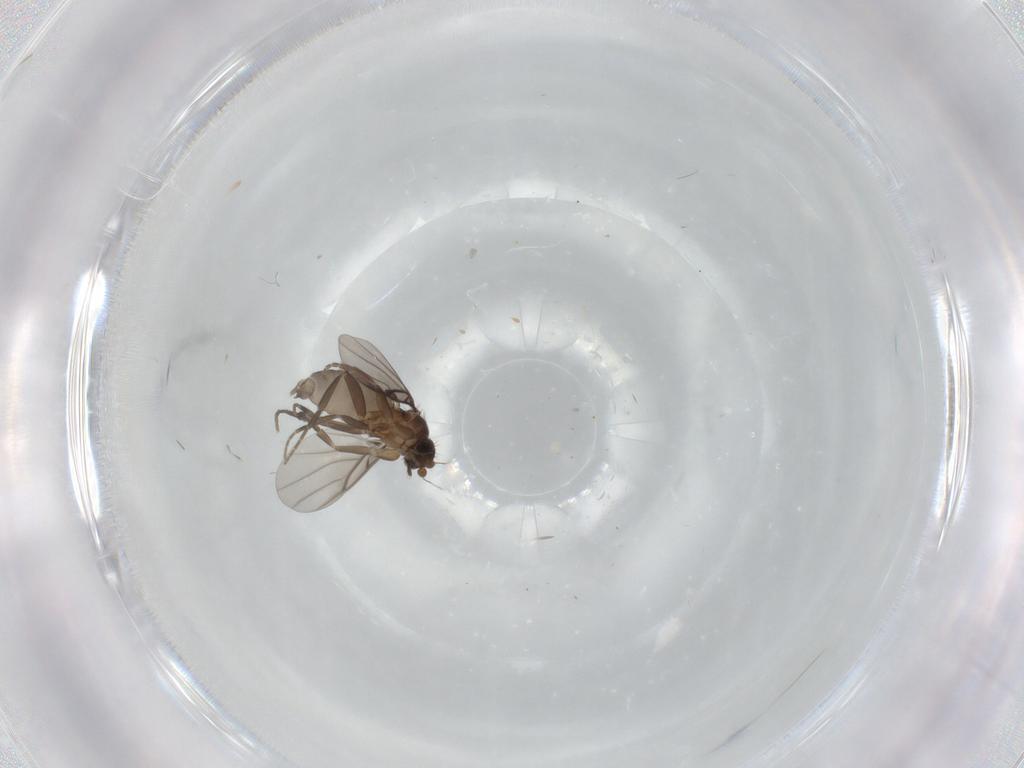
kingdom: Animalia
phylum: Arthropoda
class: Insecta
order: Diptera
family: Phoridae
